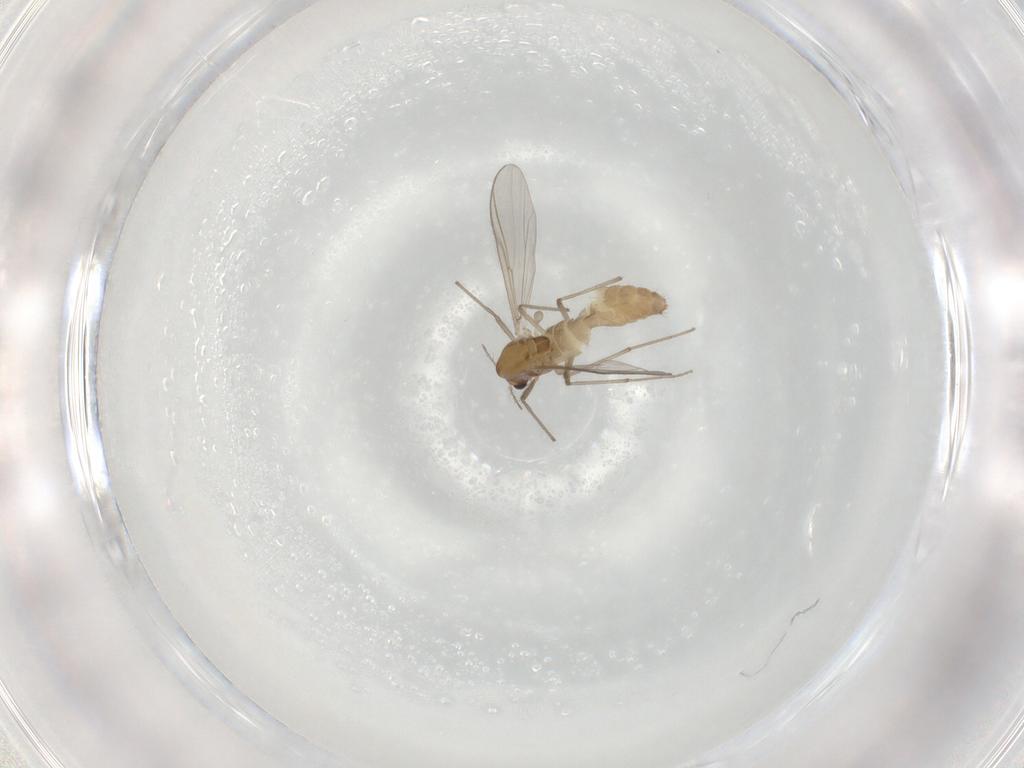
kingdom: Animalia
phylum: Arthropoda
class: Insecta
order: Diptera
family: Chironomidae
